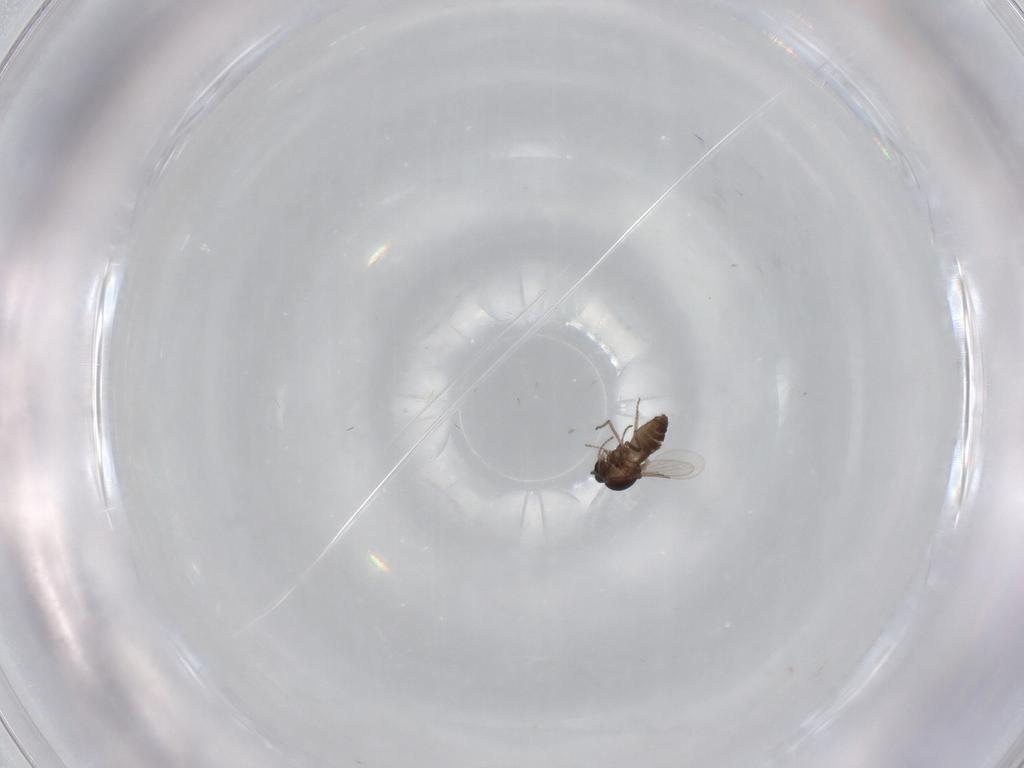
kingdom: Animalia
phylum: Arthropoda
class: Insecta
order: Diptera
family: Ceratopogonidae
